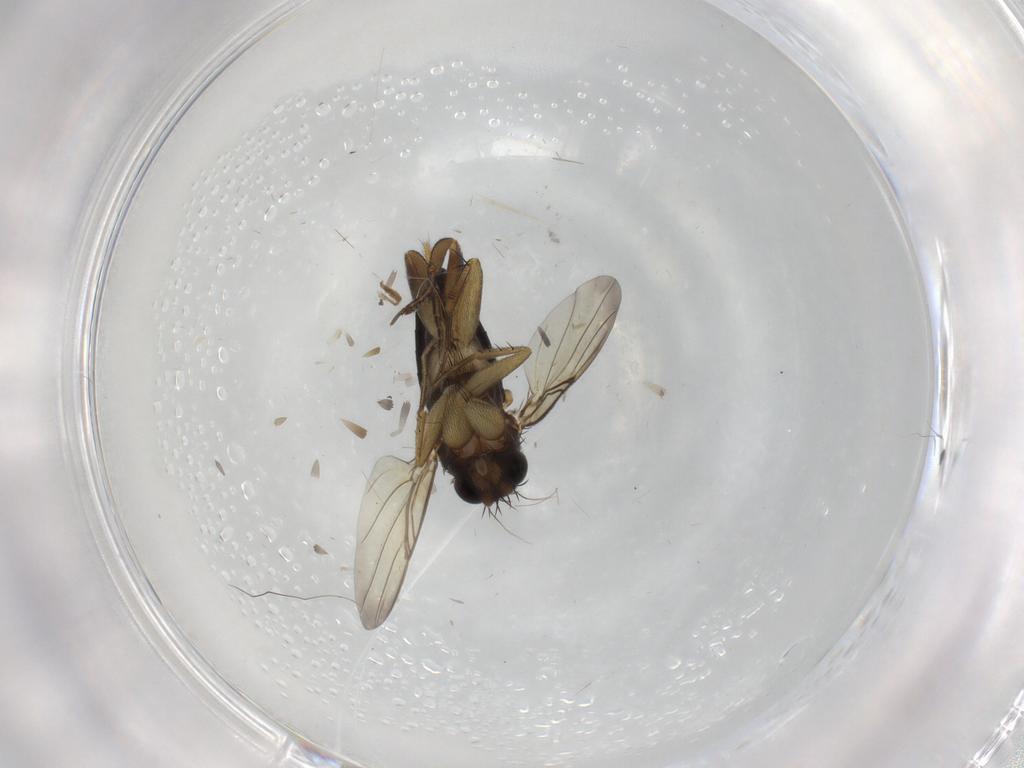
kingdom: Animalia
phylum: Arthropoda
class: Insecta
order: Diptera
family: Phoridae
